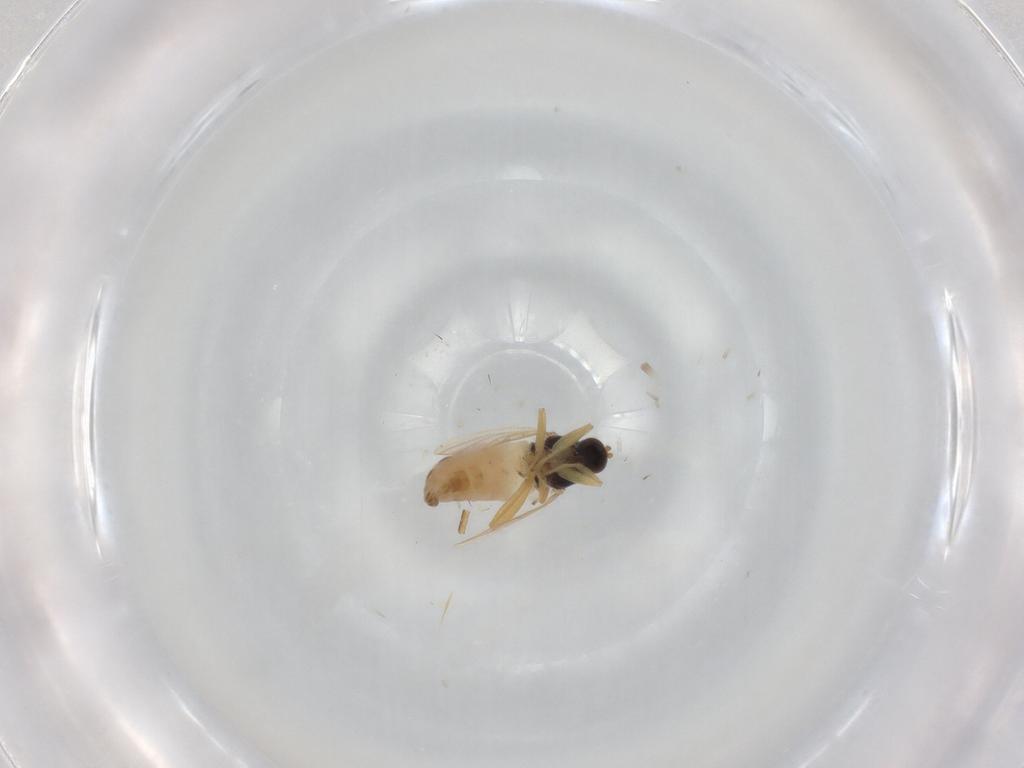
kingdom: Animalia
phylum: Arthropoda
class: Insecta
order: Diptera
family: Hybotidae
